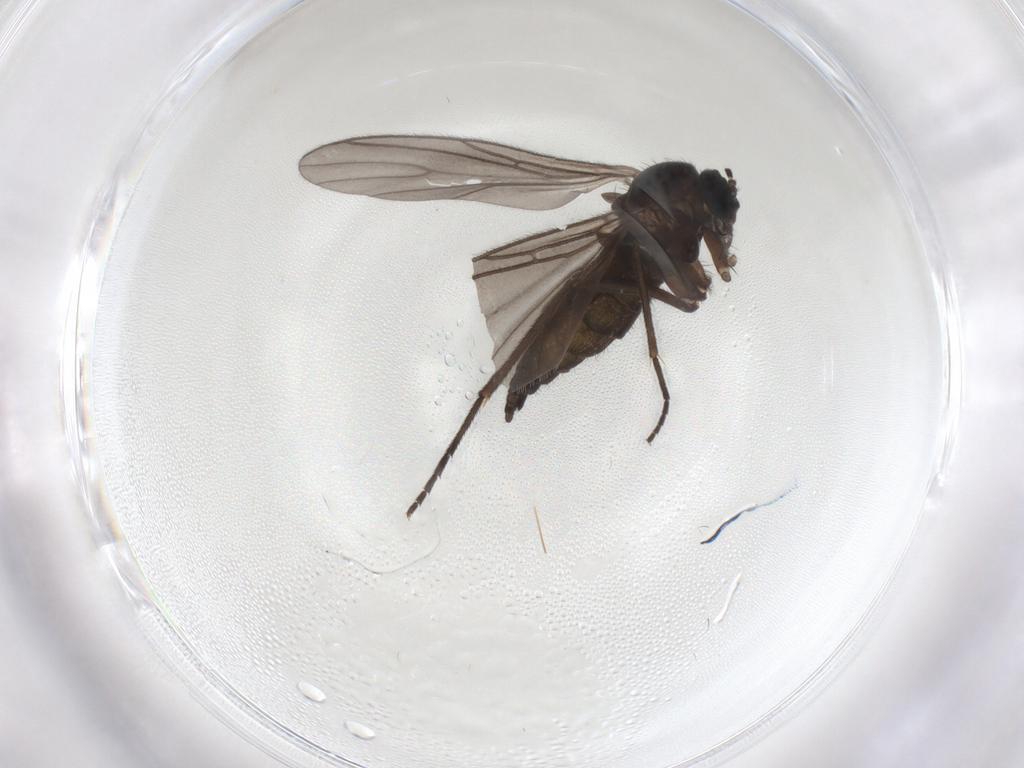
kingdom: Animalia
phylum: Arthropoda
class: Insecta
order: Diptera
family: Sciaridae
